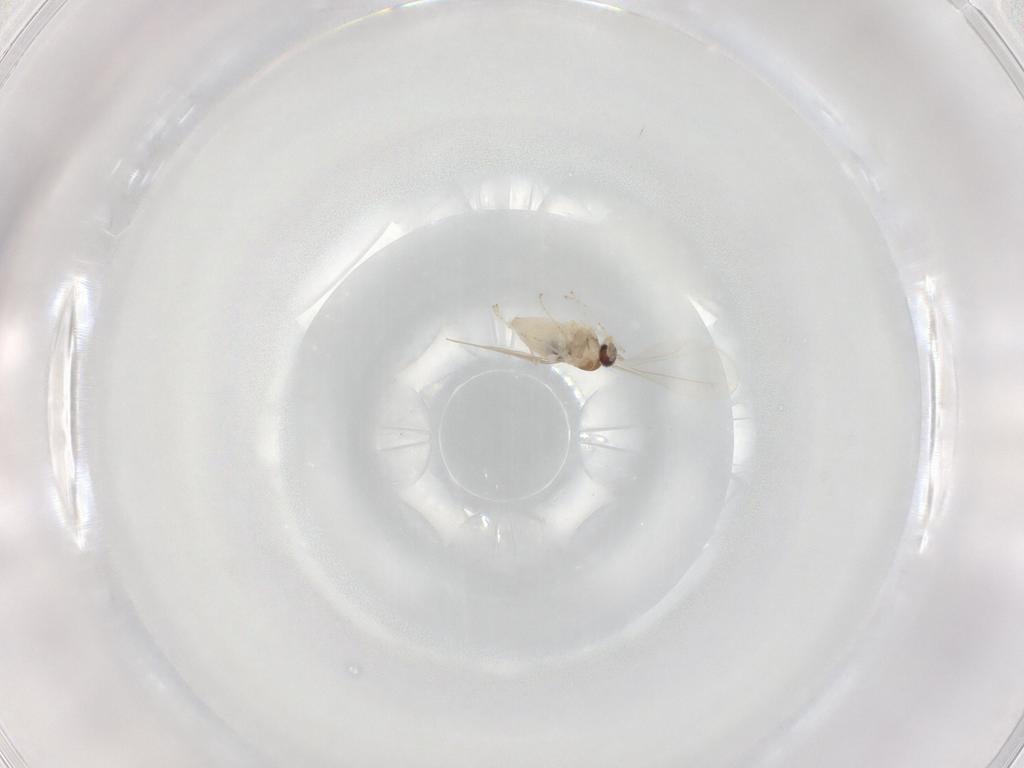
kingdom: Animalia
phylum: Arthropoda
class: Insecta
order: Diptera
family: Cecidomyiidae
